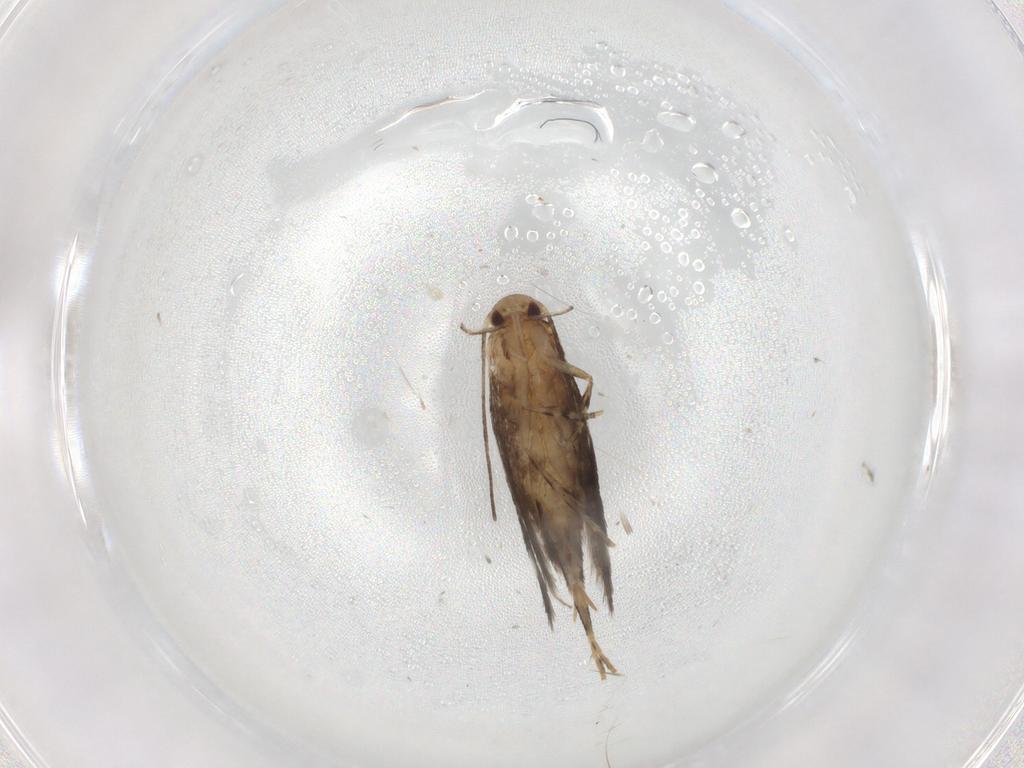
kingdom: Animalia
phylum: Arthropoda
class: Insecta
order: Lepidoptera
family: Elachistidae
